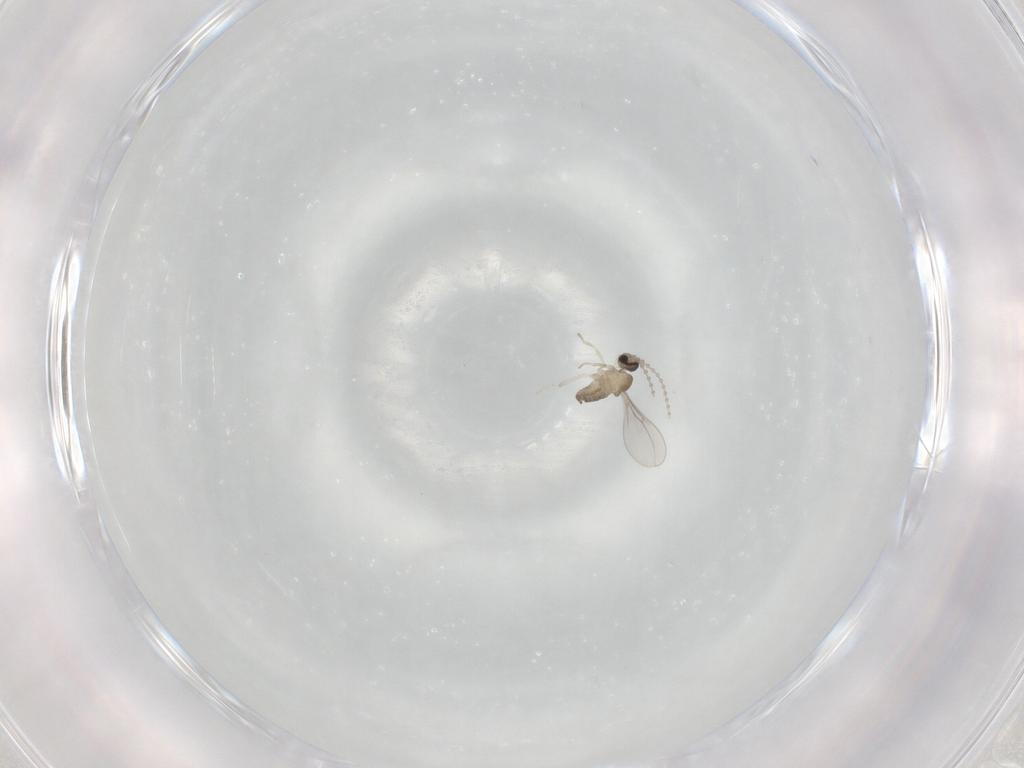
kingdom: Animalia
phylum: Arthropoda
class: Insecta
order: Diptera
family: Cecidomyiidae
